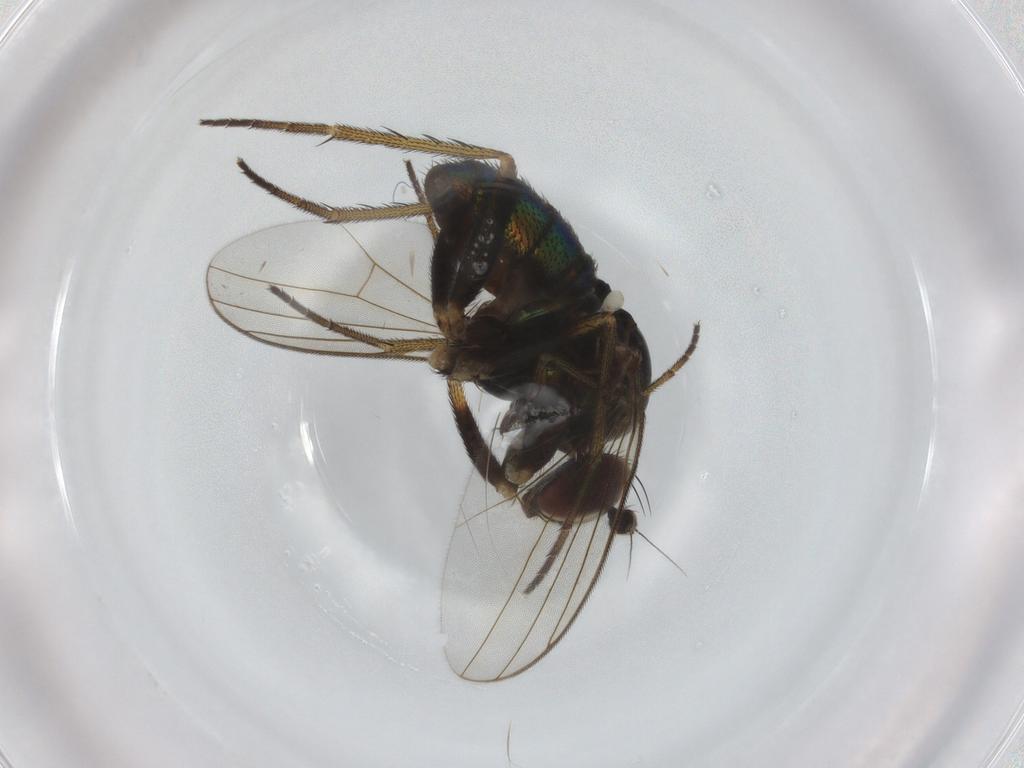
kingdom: Animalia
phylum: Arthropoda
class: Insecta
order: Diptera
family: Dolichopodidae
